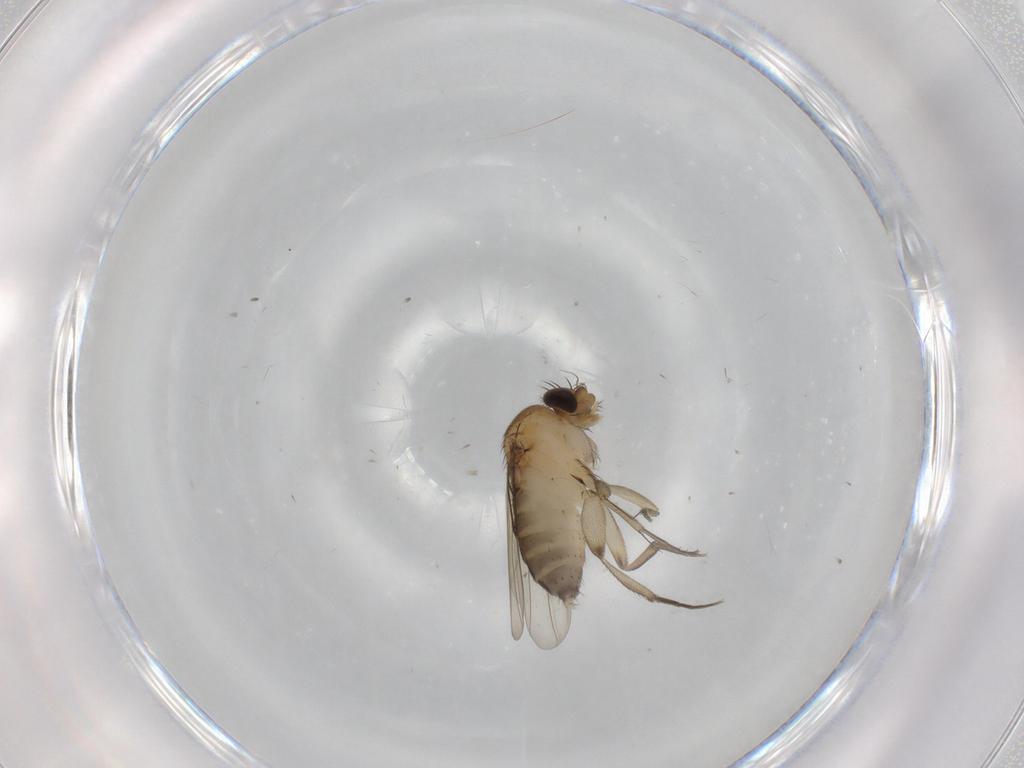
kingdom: Animalia
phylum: Arthropoda
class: Insecta
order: Diptera
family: Phoridae
